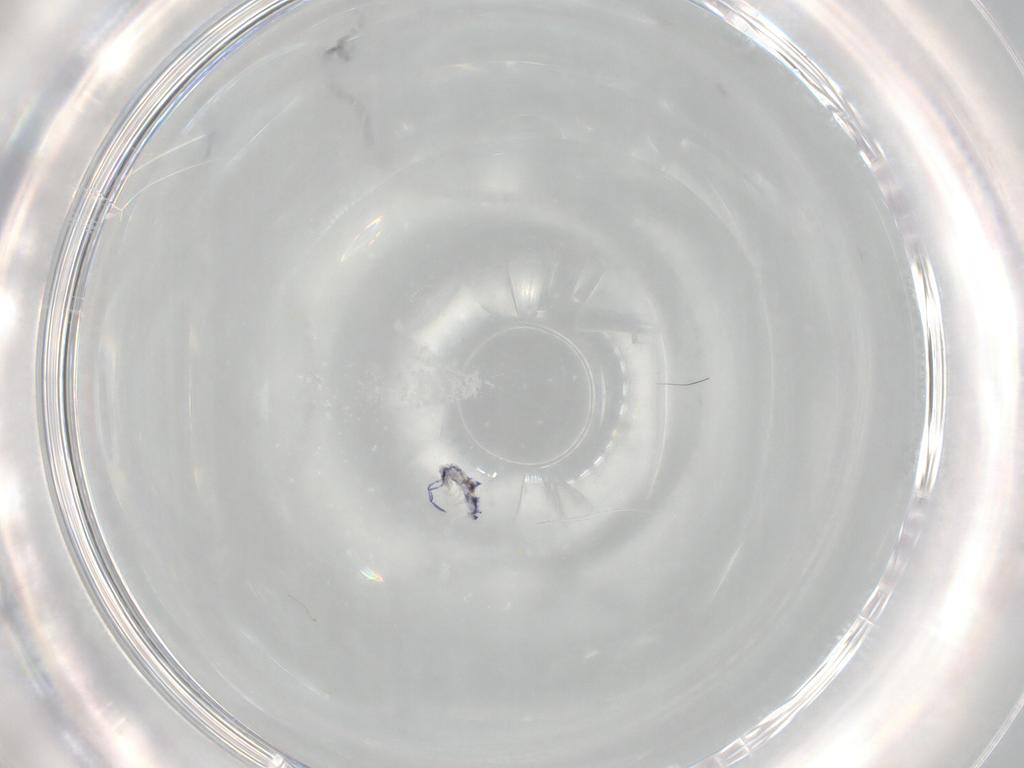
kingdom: Animalia
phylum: Arthropoda
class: Collembola
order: Entomobryomorpha
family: Entomobryidae
